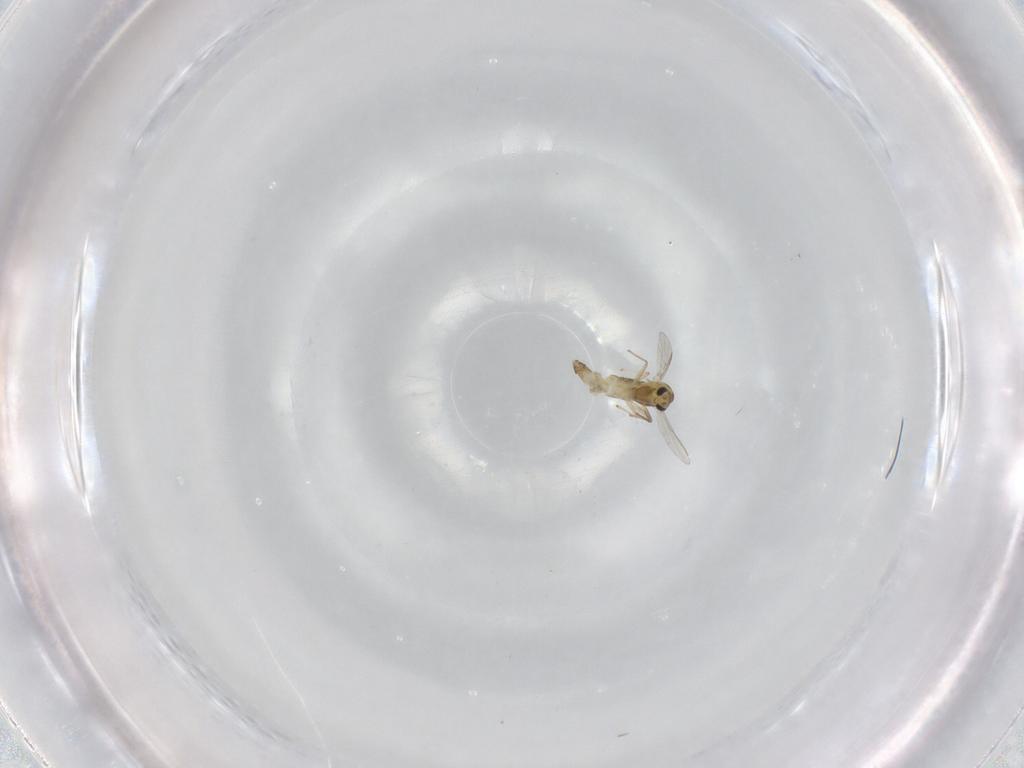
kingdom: Animalia
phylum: Arthropoda
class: Insecta
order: Diptera
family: Chironomidae
